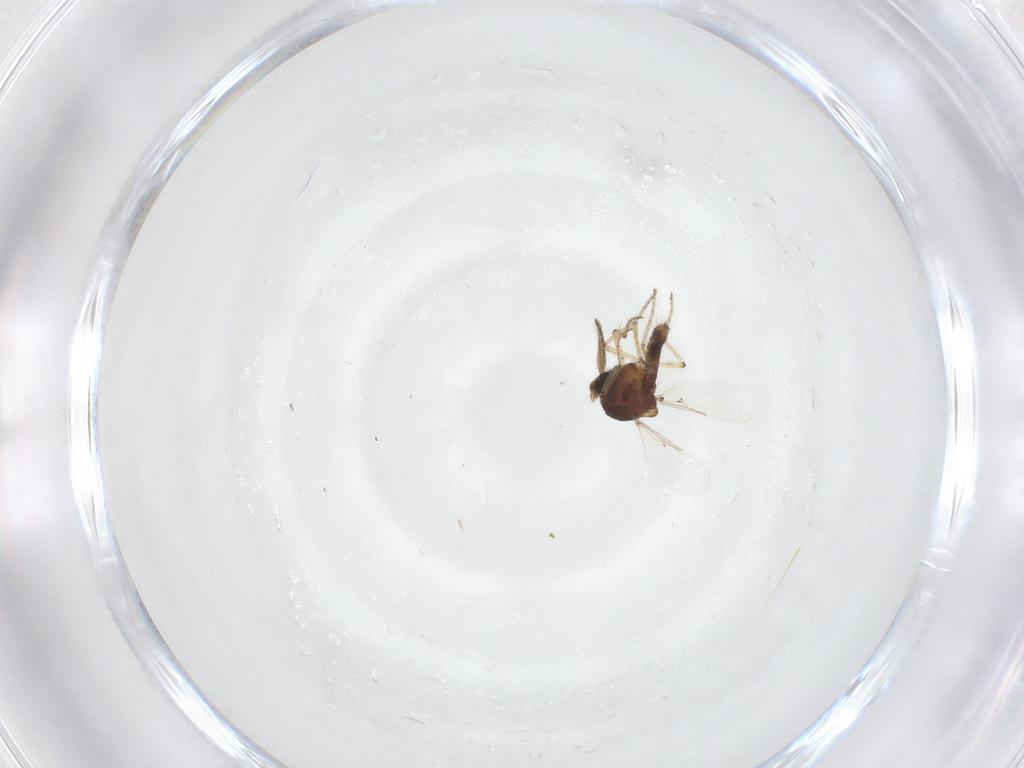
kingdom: Animalia
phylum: Arthropoda
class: Insecta
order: Diptera
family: Ceratopogonidae
